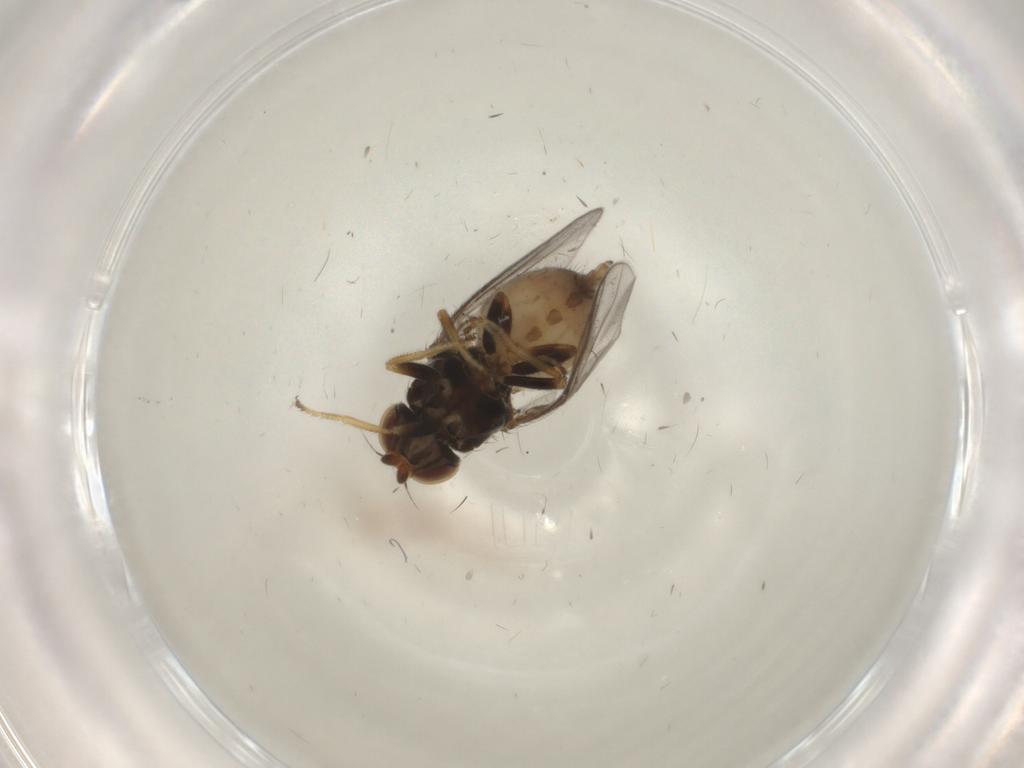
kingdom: Animalia
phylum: Arthropoda
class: Insecta
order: Diptera
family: Chloropidae
